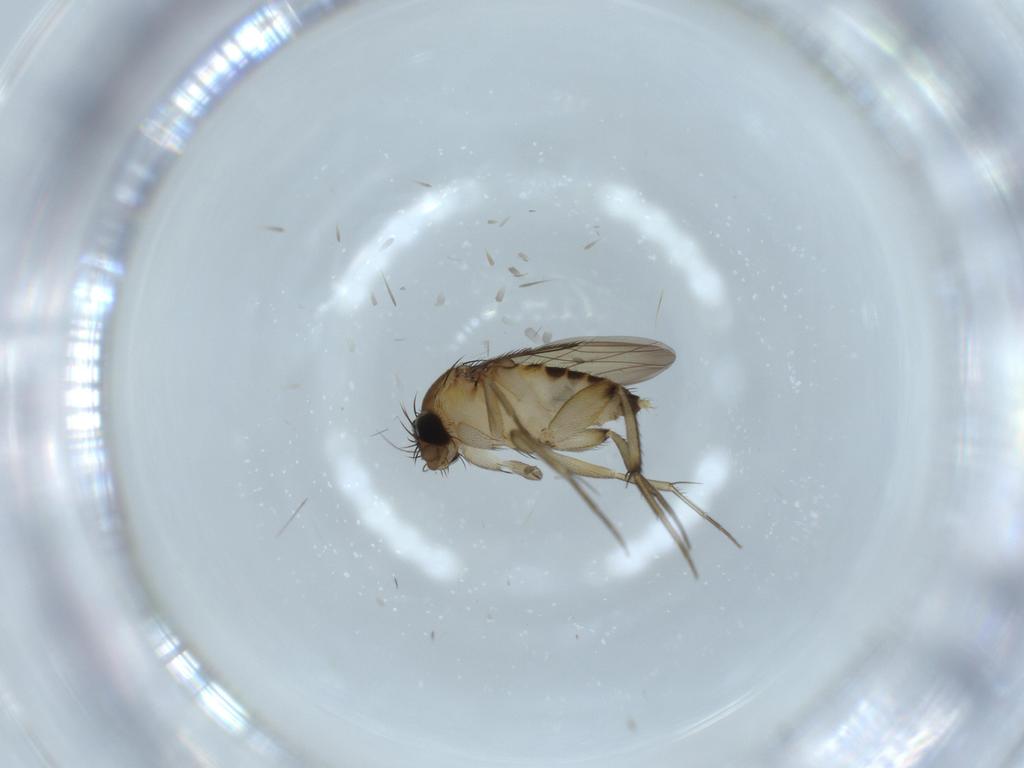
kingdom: Animalia
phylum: Arthropoda
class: Insecta
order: Diptera
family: Phoridae
